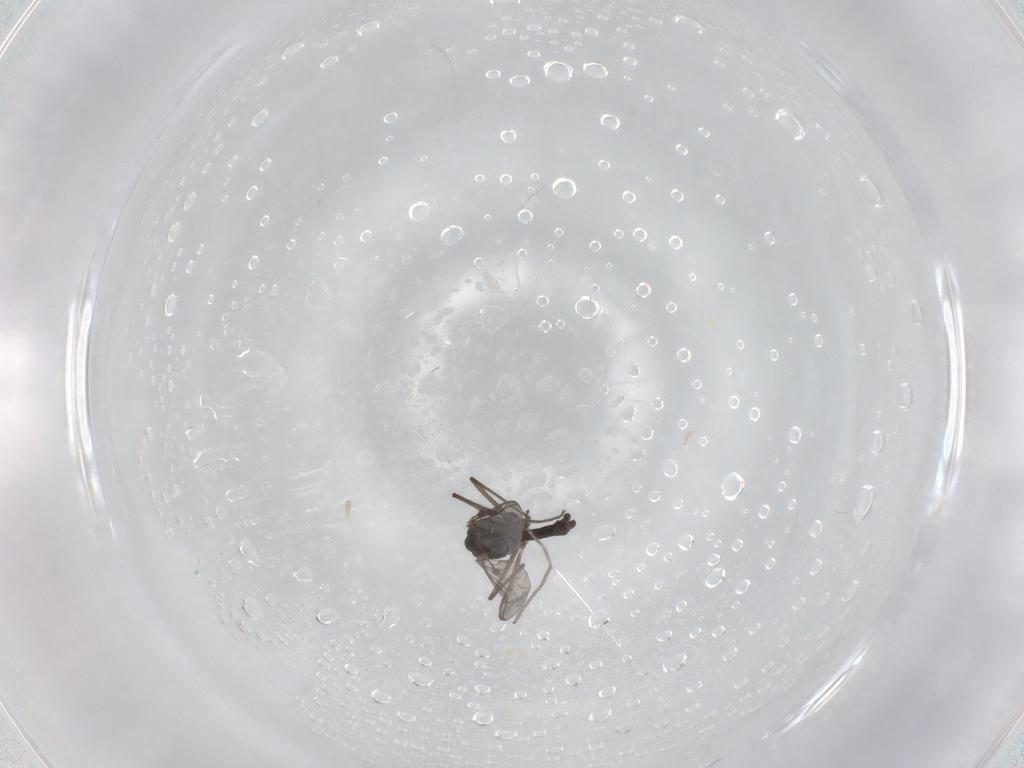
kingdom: Animalia
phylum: Arthropoda
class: Insecta
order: Diptera
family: Chironomidae
